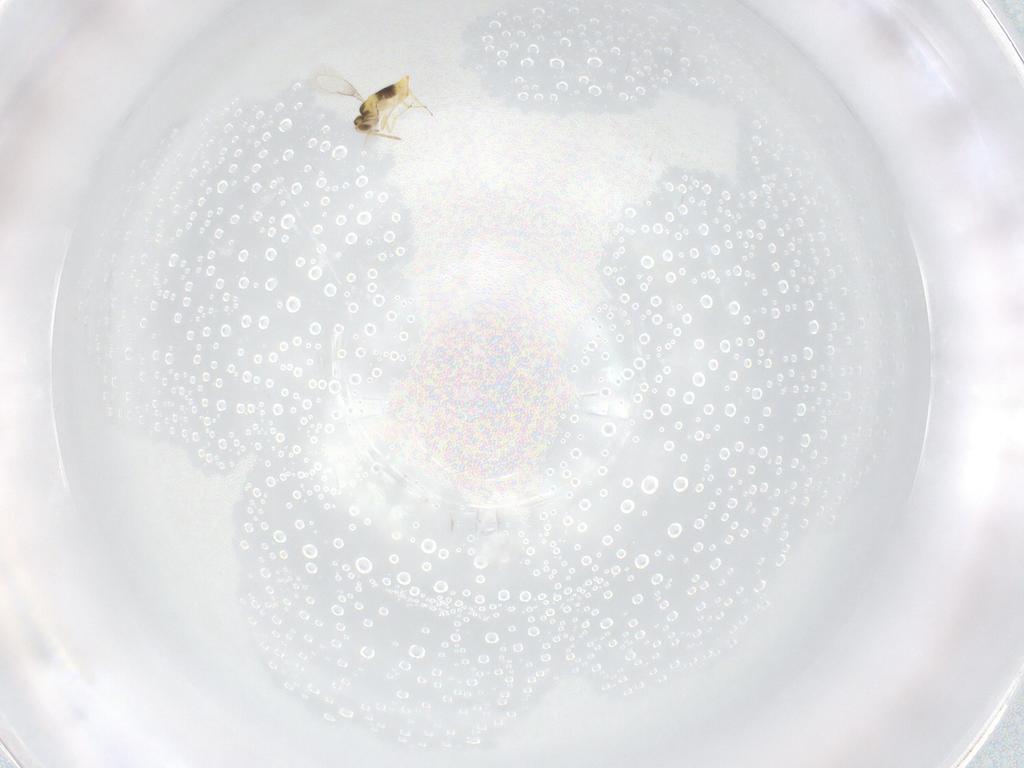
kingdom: Animalia
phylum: Arthropoda
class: Insecta
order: Hymenoptera
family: Aphelinidae
